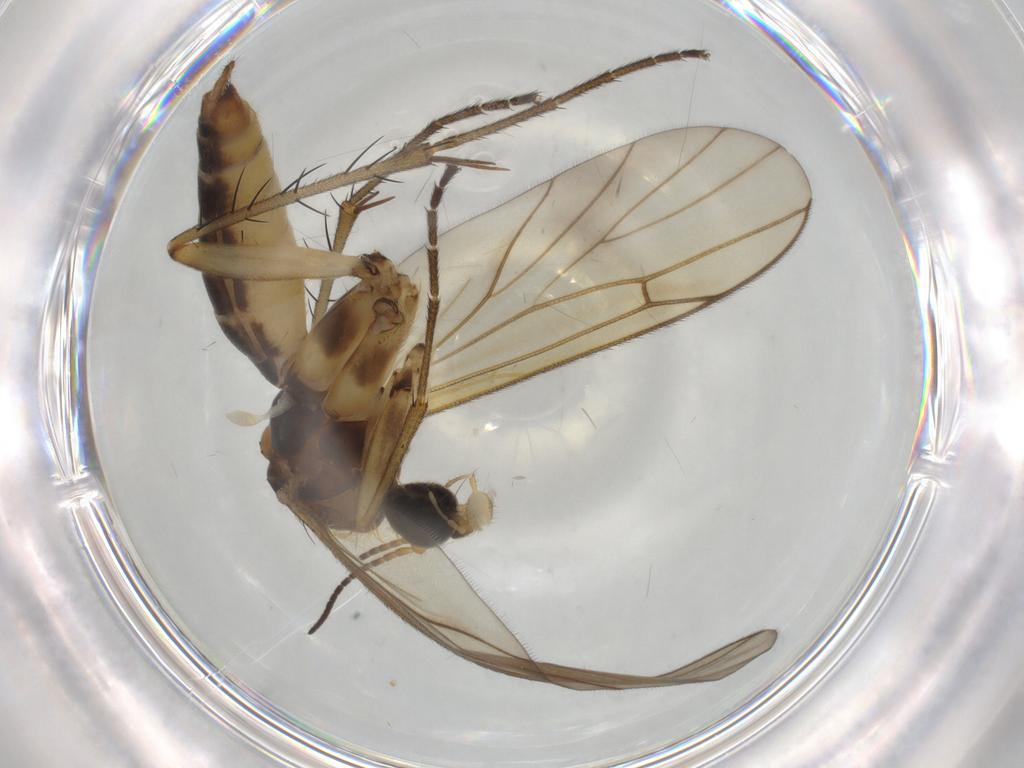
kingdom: Animalia
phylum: Arthropoda
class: Insecta
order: Diptera
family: Mycetophilidae
